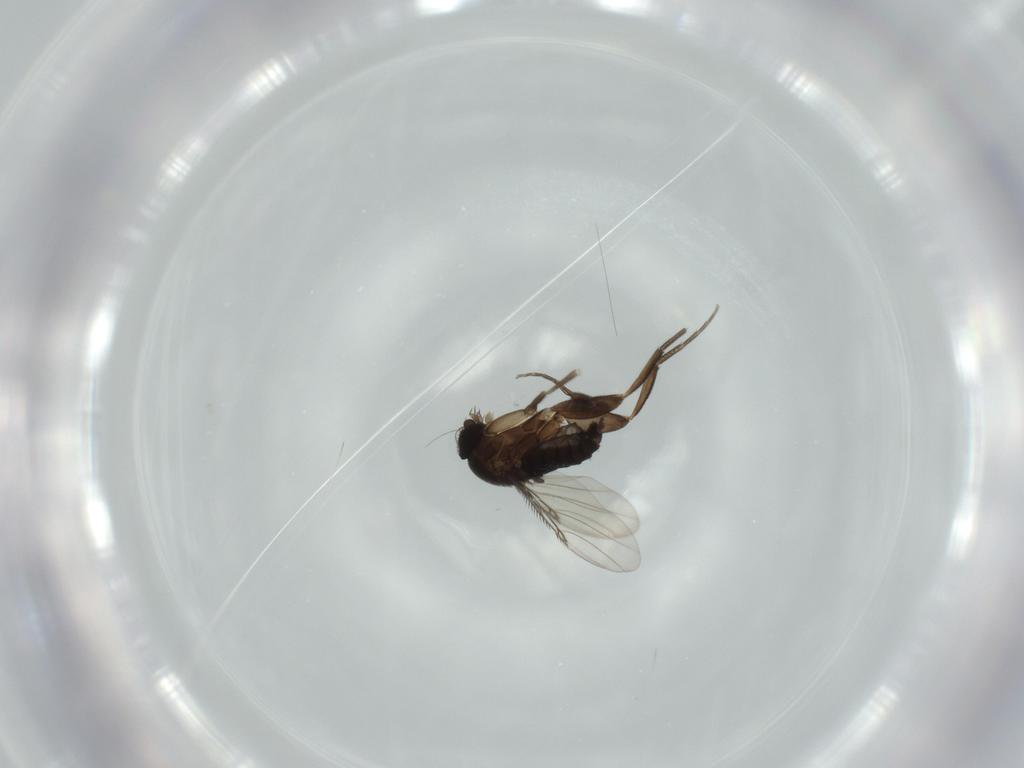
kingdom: Animalia
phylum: Arthropoda
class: Insecta
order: Diptera
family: Phoridae
